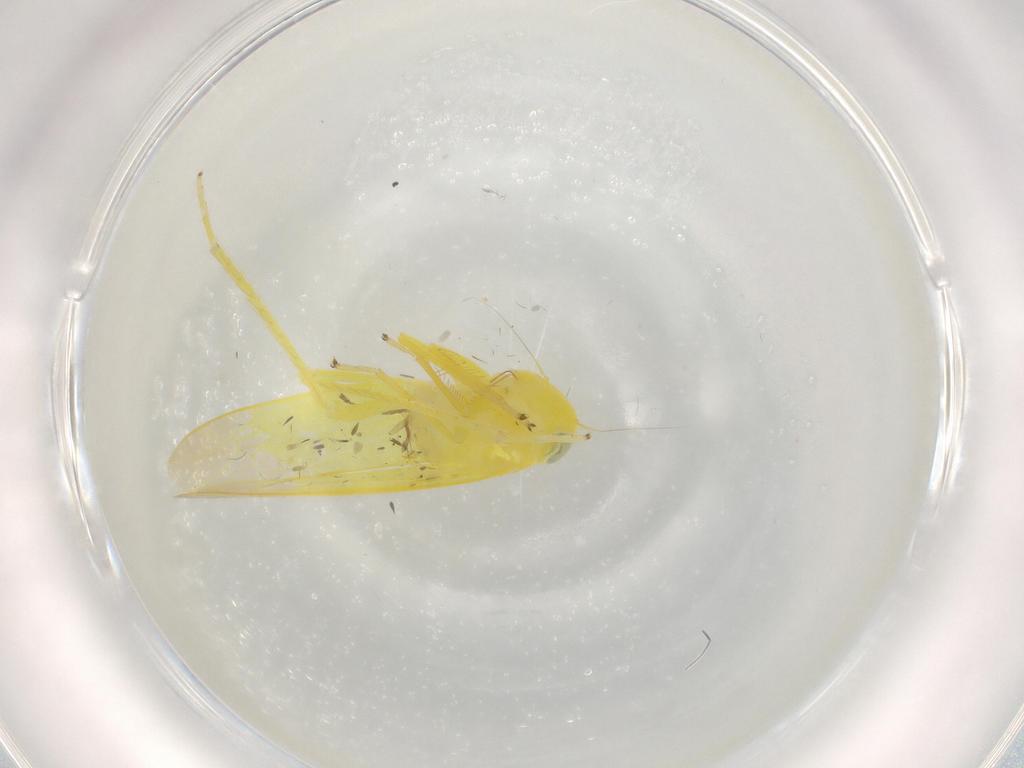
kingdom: Animalia
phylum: Arthropoda
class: Insecta
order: Hemiptera
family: Cicadellidae
